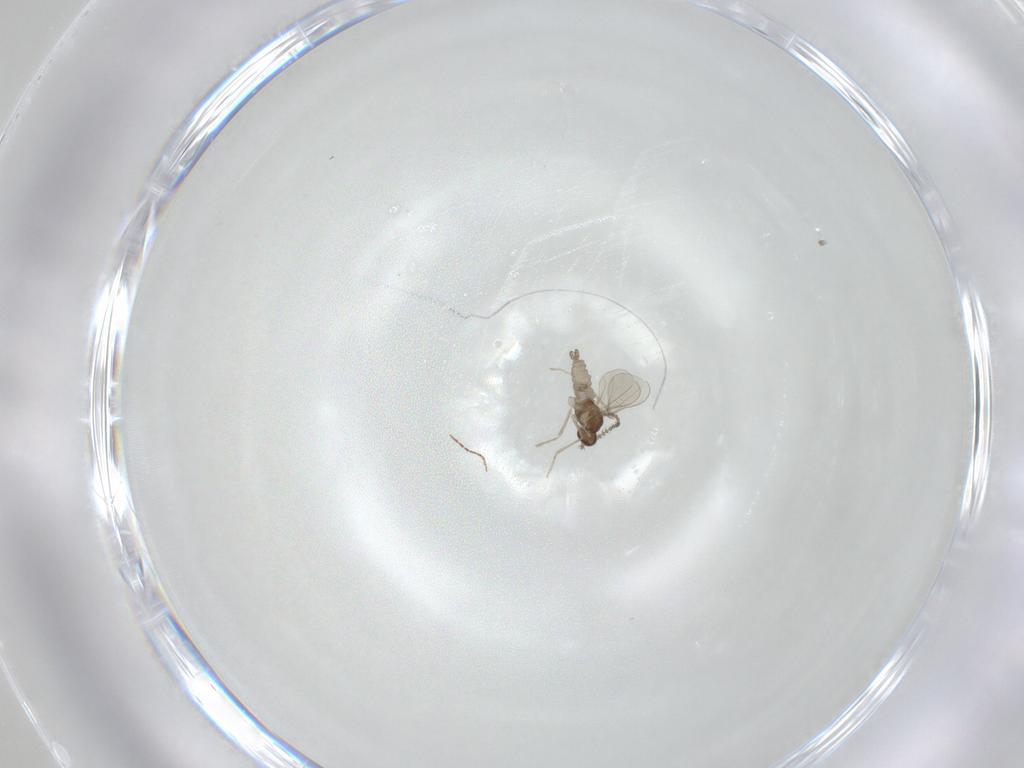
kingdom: Animalia
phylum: Arthropoda
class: Insecta
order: Diptera
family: Cecidomyiidae
